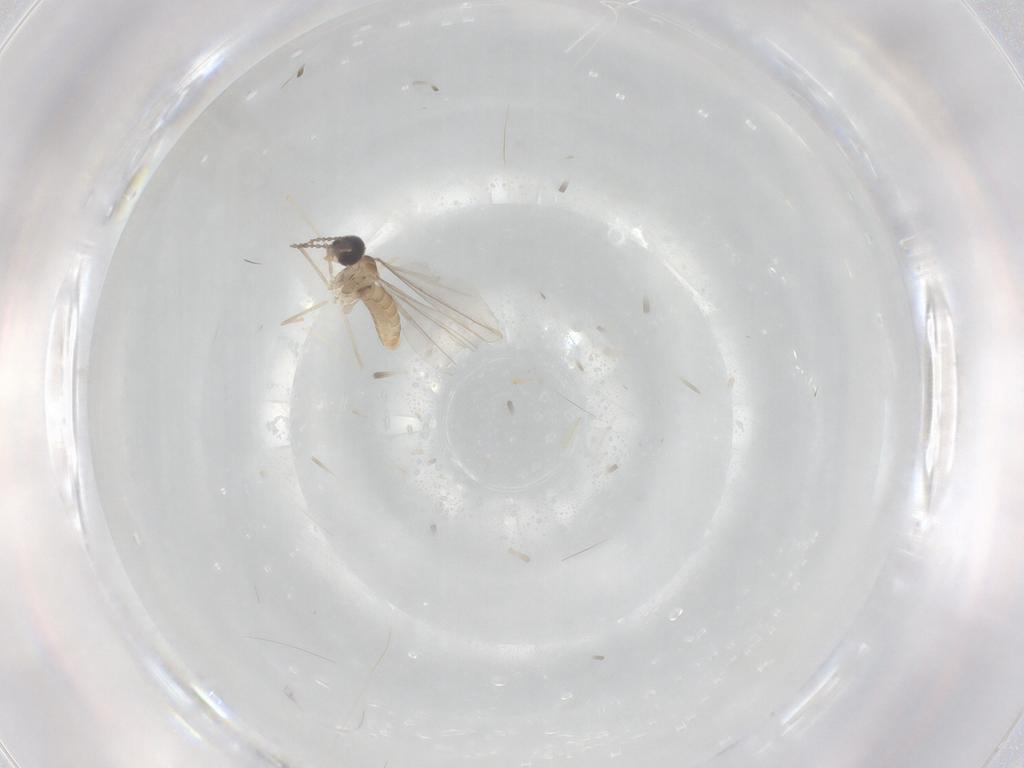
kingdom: Animalia
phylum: Arthropoda
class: Insecta
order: Diptera
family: Cecidomyiidae
